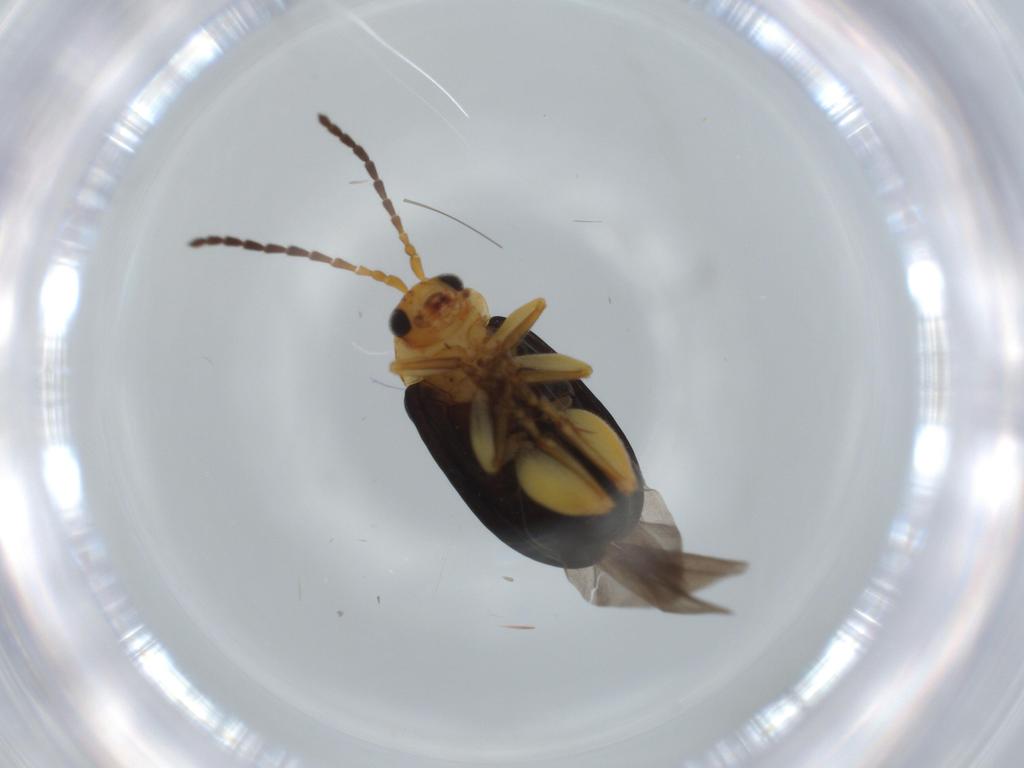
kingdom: Animalia
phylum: Arthropoda
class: Insecta
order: Coleoptera
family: Chrysomelidae
